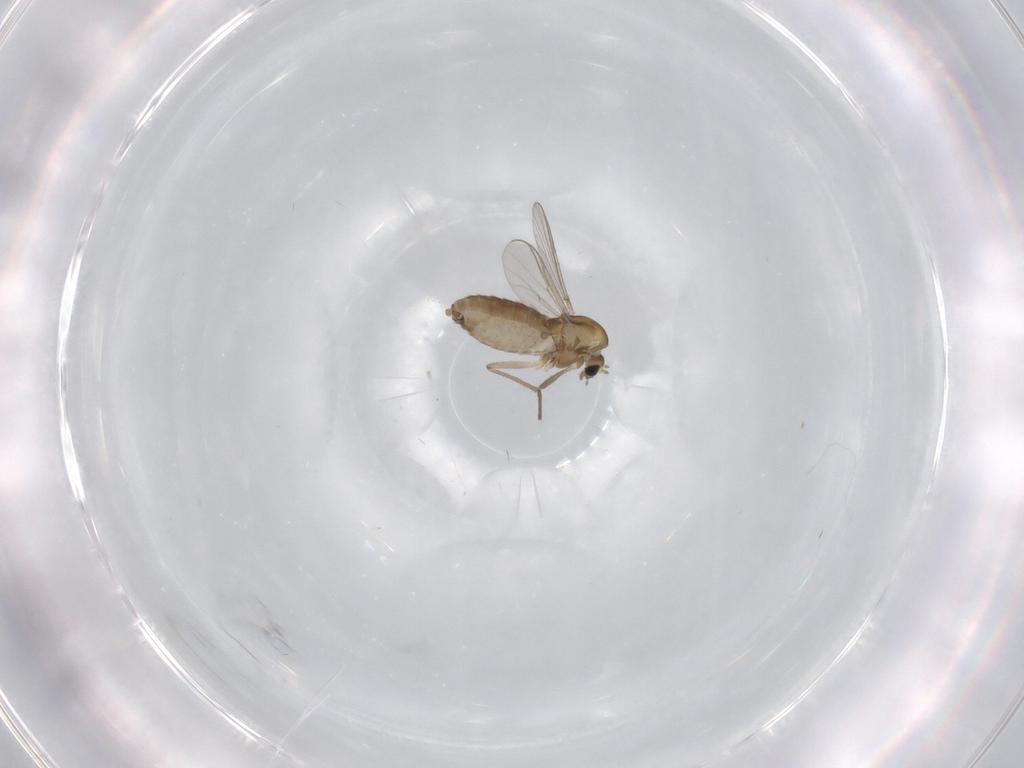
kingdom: Animalia
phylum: Arthropoda
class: Insecta
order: Diptera
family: Chironomidae
